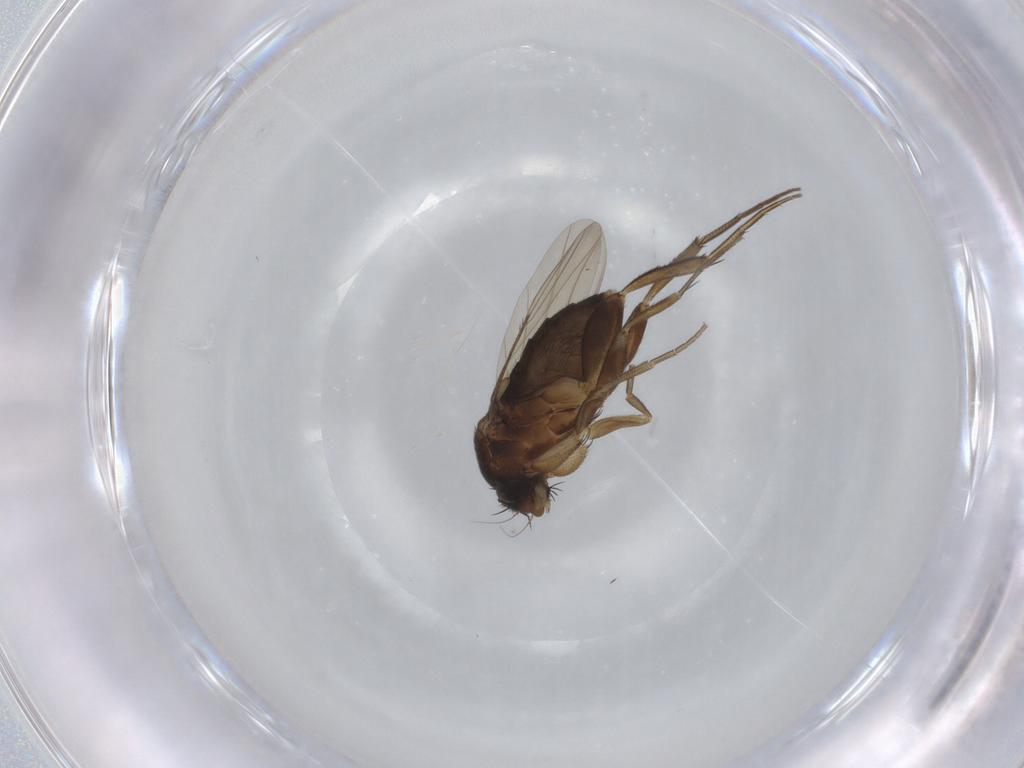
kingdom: Animalia
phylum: Arthropoda
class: Insecta
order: Diptera
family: Phoridae
